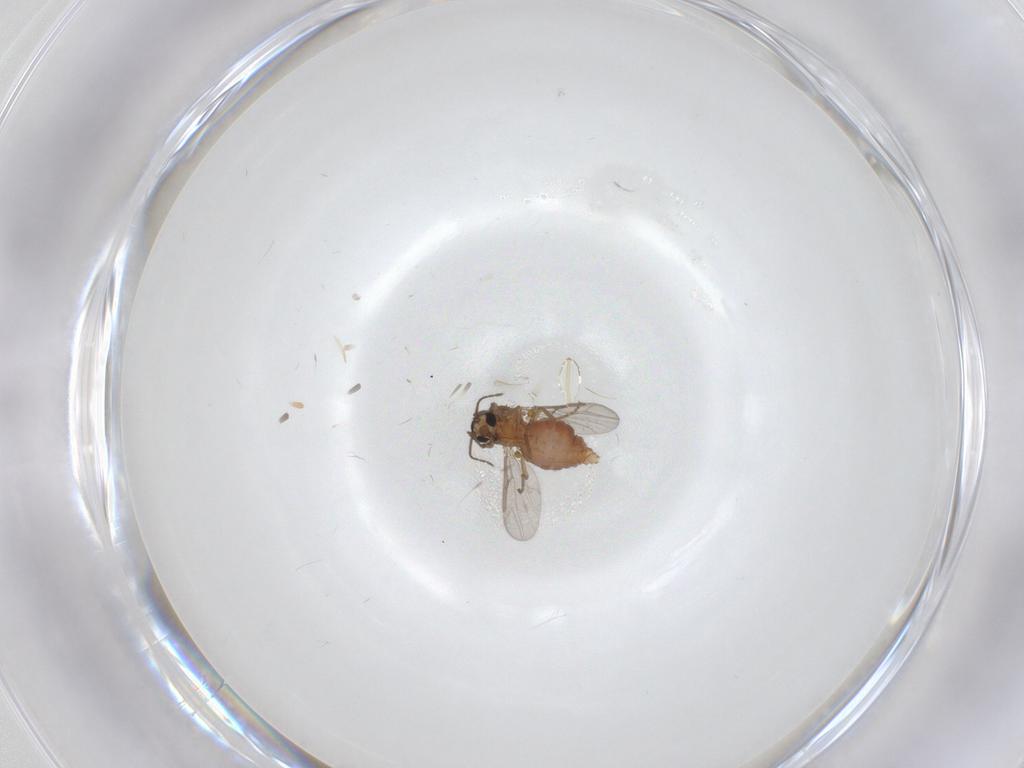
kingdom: Animalia
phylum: Arthropoda
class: Insecta
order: Diptera
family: Ceratopogonidae
